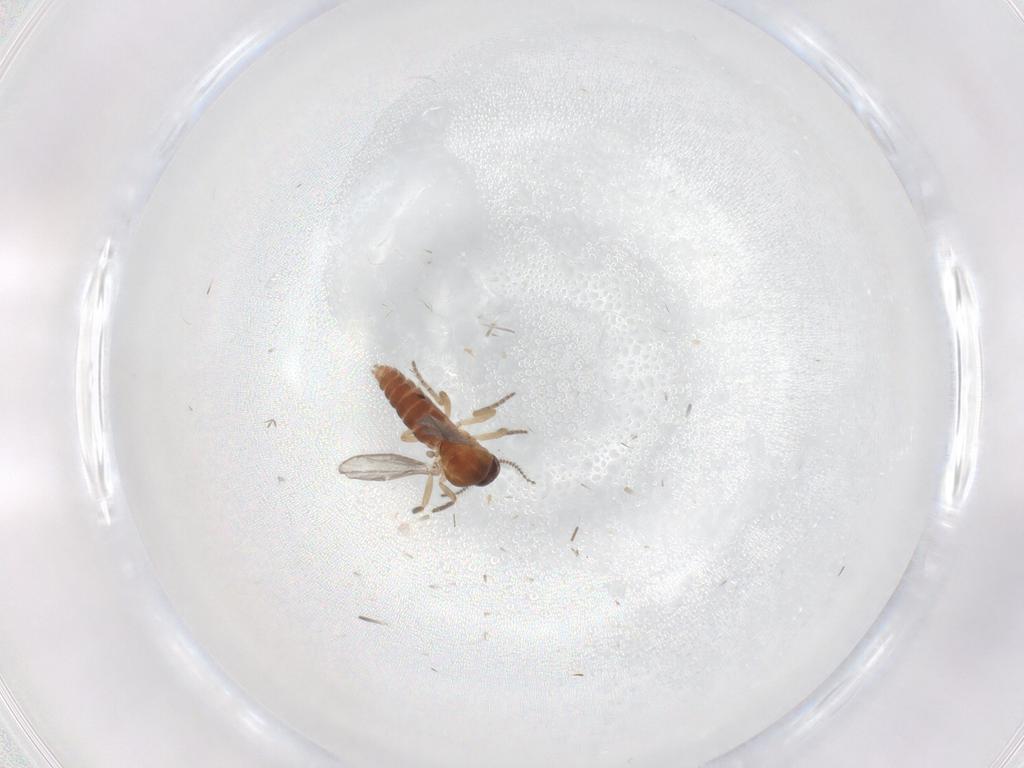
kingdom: Animalia
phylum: Arthropoda
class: Insecta
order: Diptera
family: Ceratopogonidae
